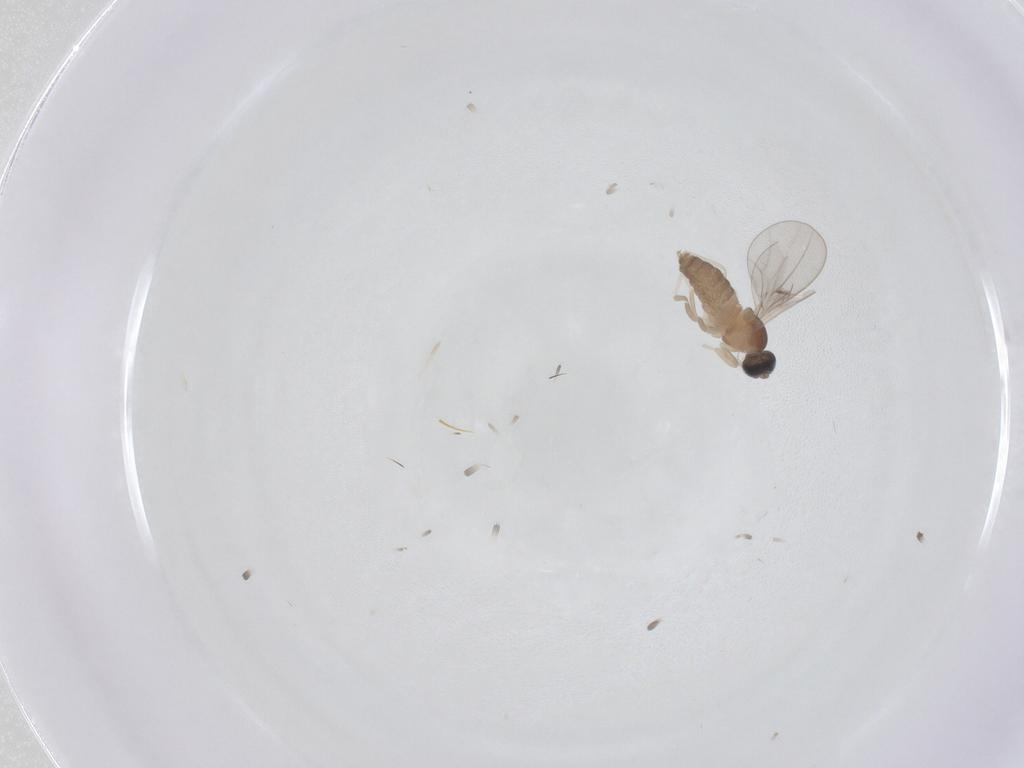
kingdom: Animalia
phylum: Arthropoda
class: Insecta
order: Diptera
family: Cecidomyiidae
